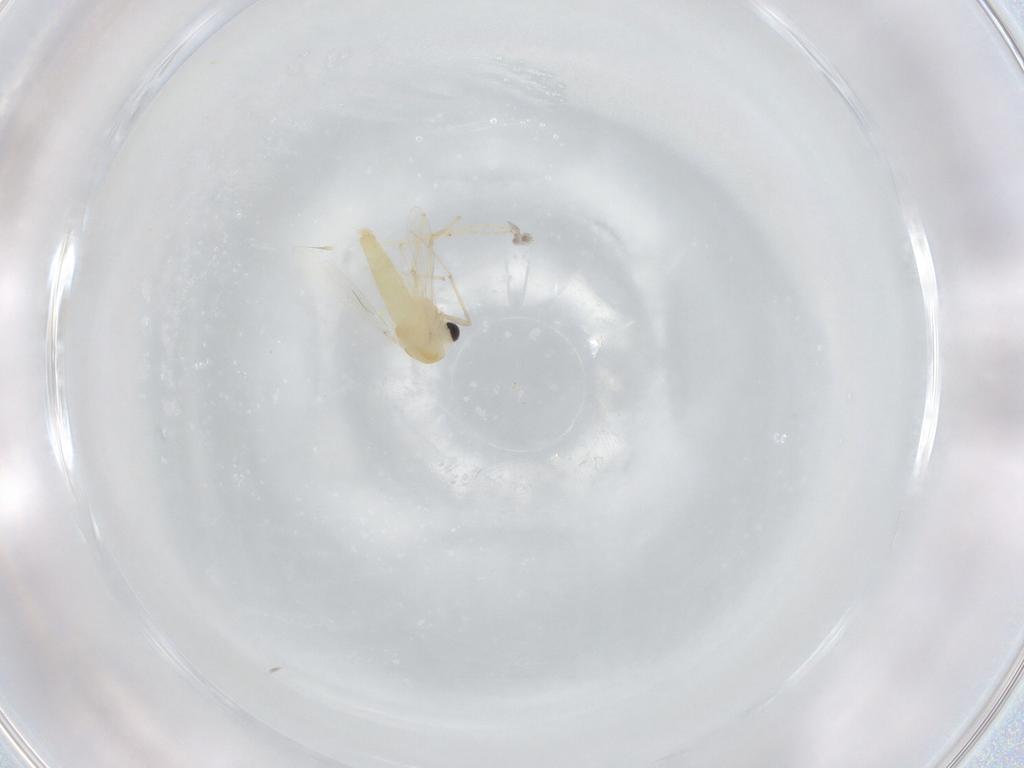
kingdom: Animalia
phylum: Arthropoda
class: Insecta
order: Diptera
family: Chironomidae
